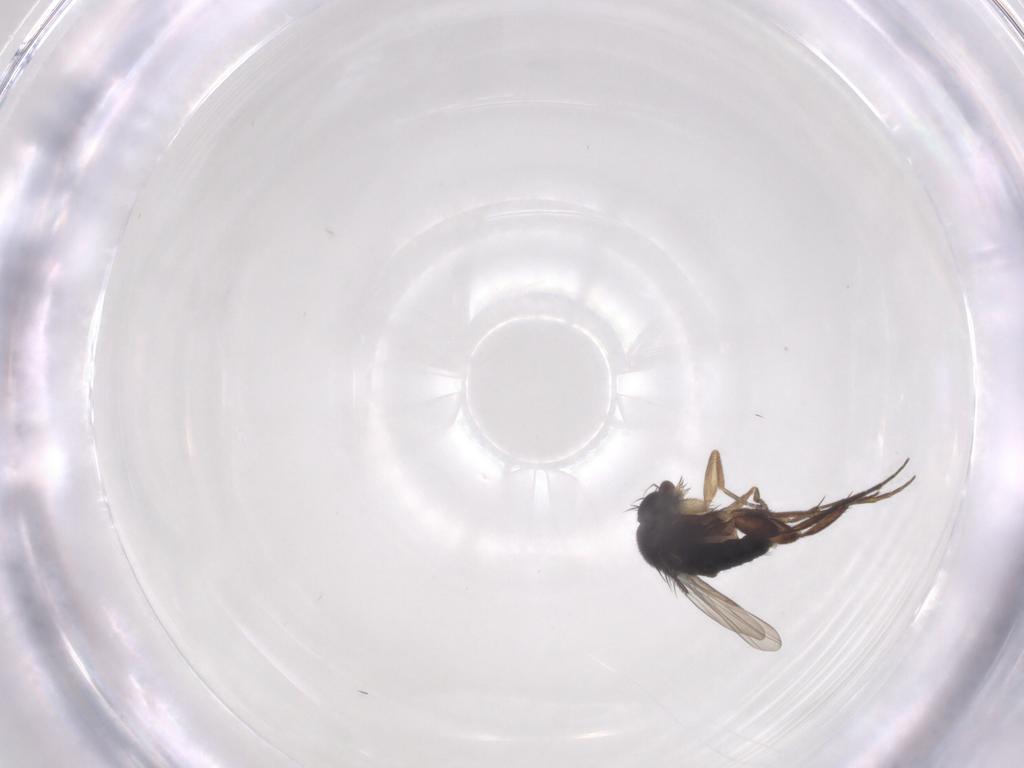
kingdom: Animalia
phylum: Arthropoda
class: Insecta
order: Diptera
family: Phoridae
